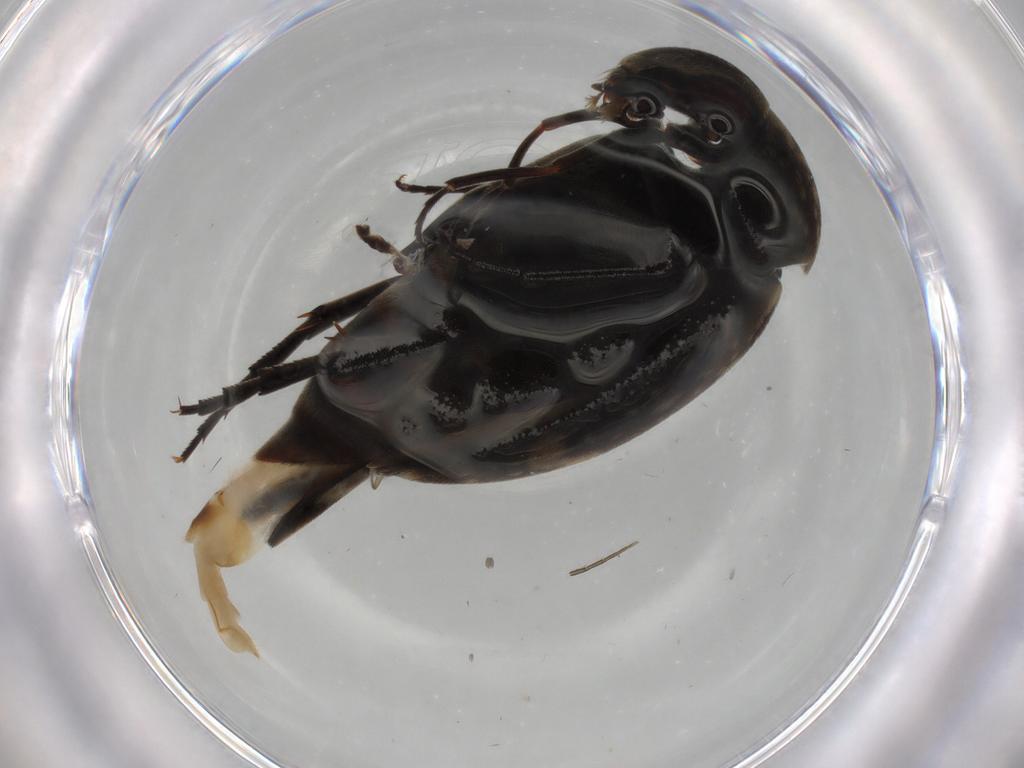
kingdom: Animalia
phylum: Arthropoda
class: Insecta
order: Coleoptera
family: Mordellidae
